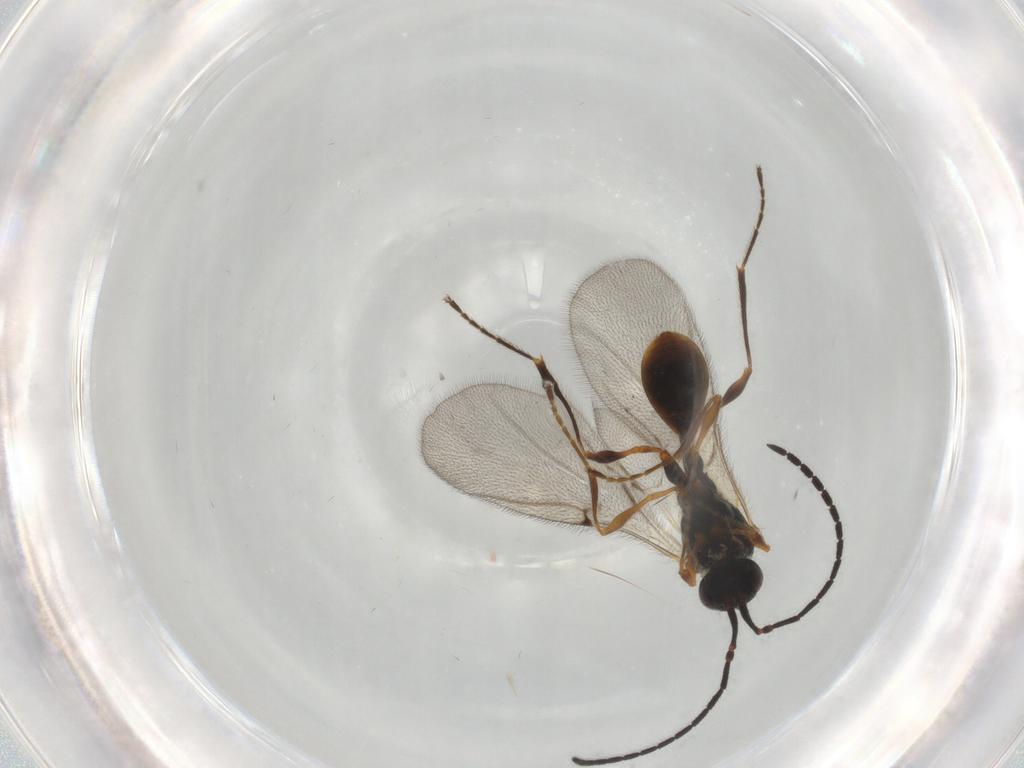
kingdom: Animalia
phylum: Arthropoda
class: Insecta
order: Hymenoptera
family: Diapriidae
